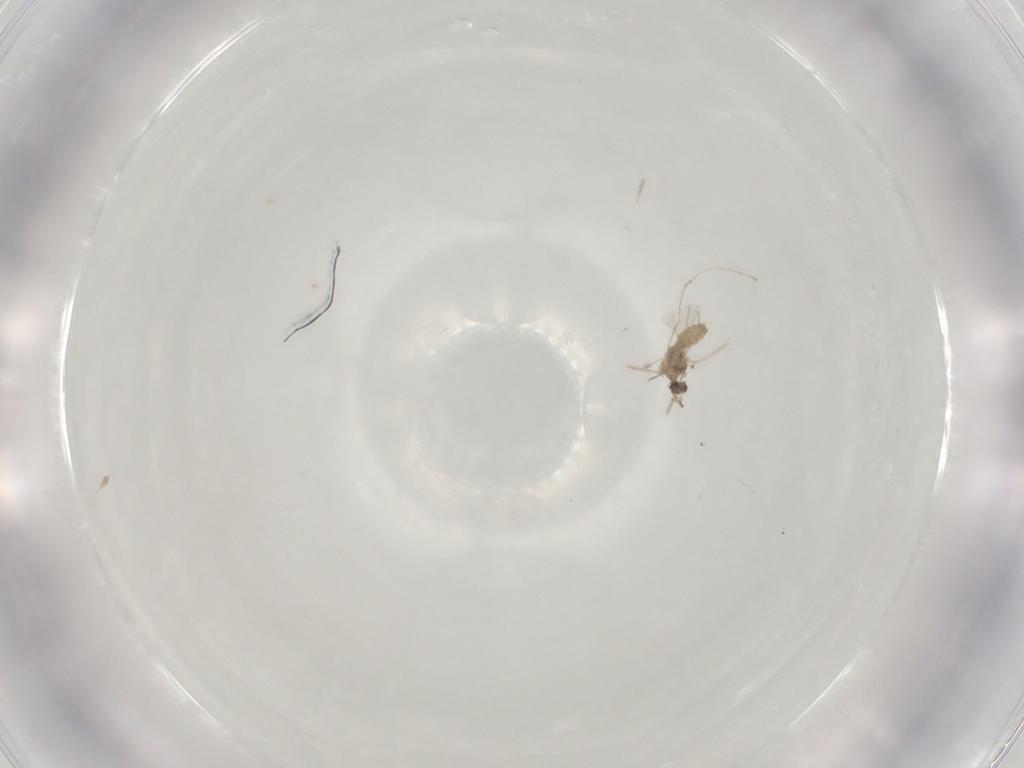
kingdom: Animalia
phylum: Arthropoda
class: Insecta
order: Diptera
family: Cecidomyiidae
